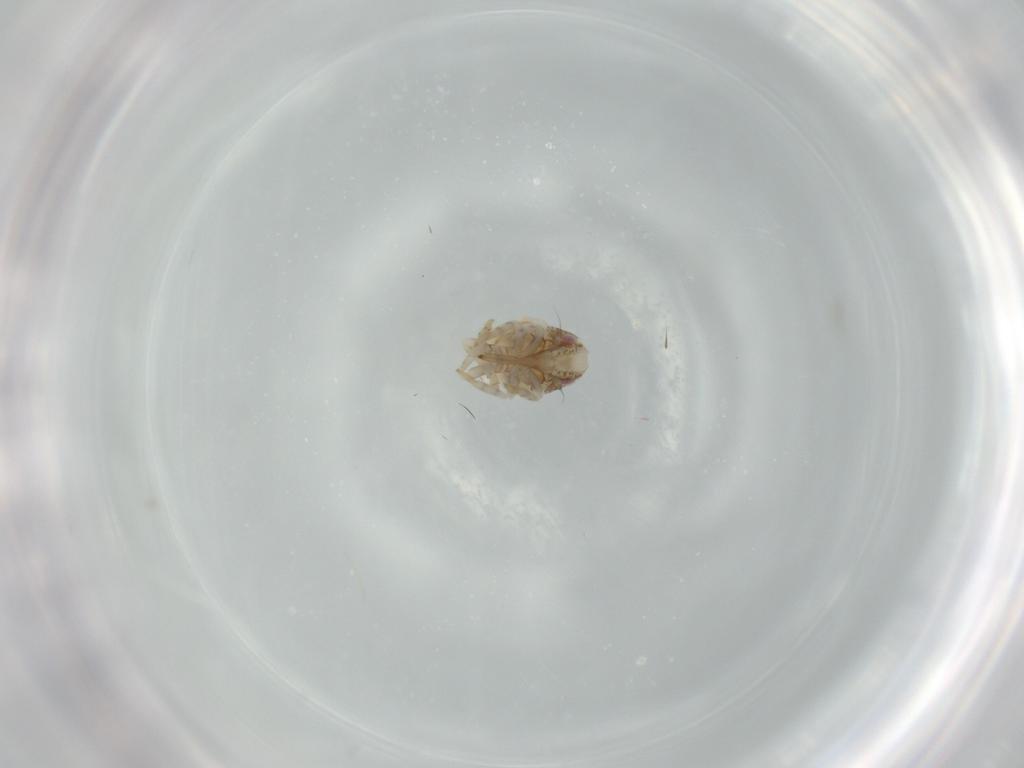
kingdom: Animalia
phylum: Arthropoda
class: Insecta
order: Hemiptera
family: Acanaloniidae
